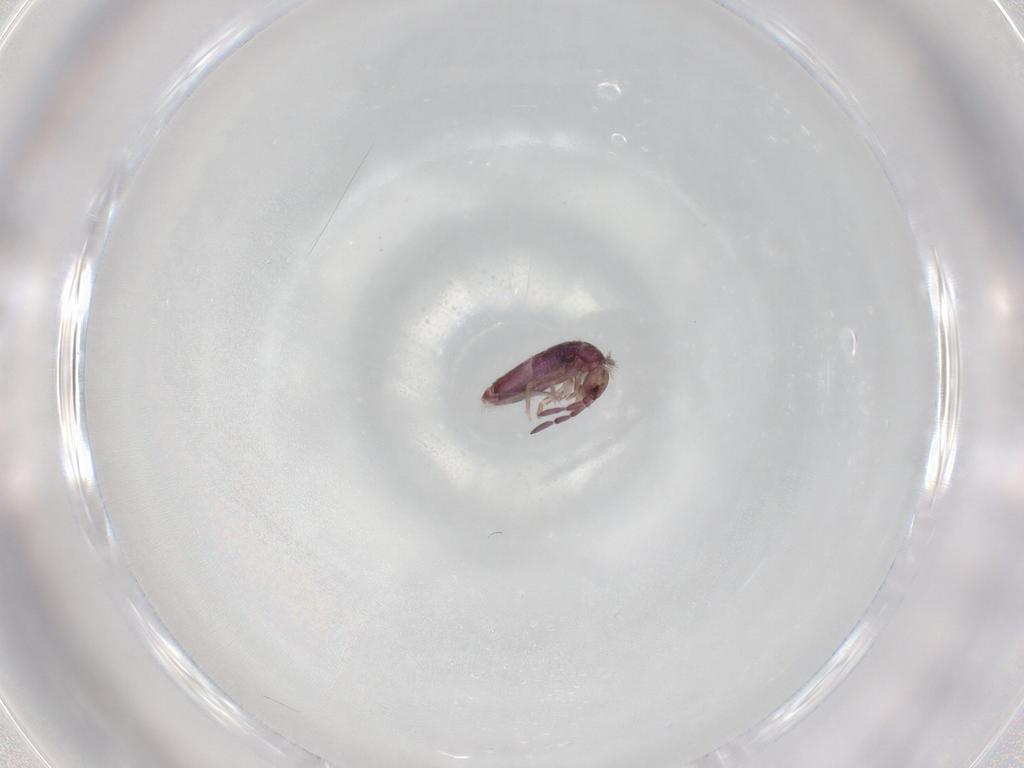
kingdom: Animalia
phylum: Arthropoda
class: Collembola
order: Entomobryomorpha
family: Entomobryidae
